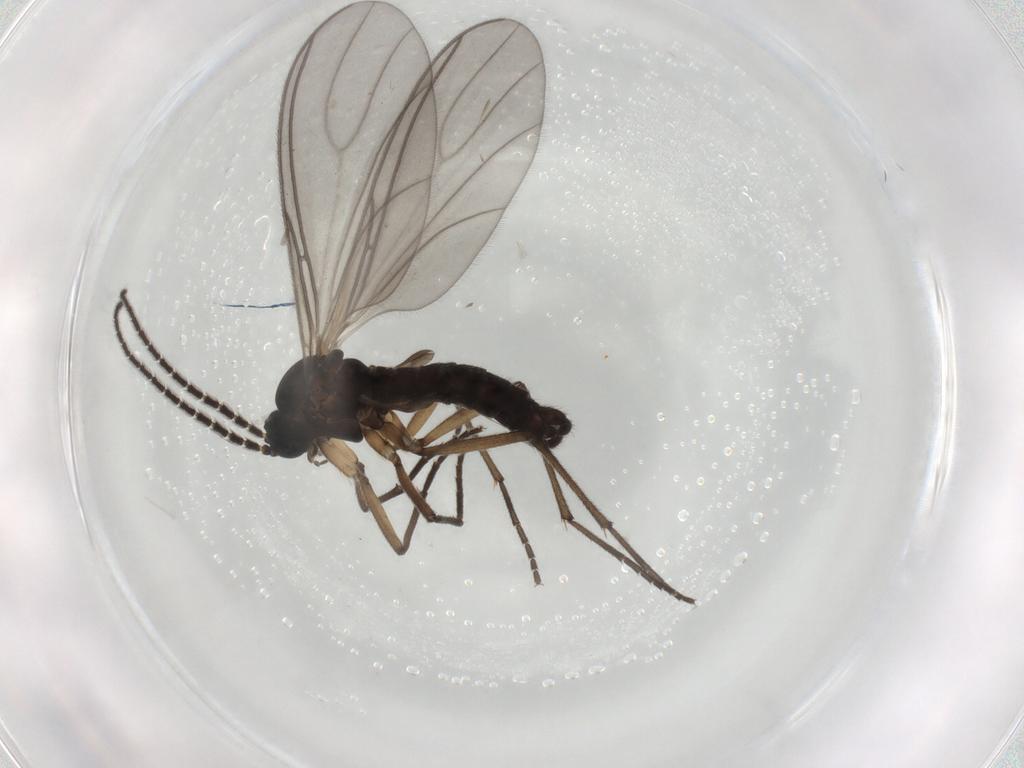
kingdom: Animalia
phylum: Arthropoda
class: Insecta
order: Diptera
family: Sciaridae
